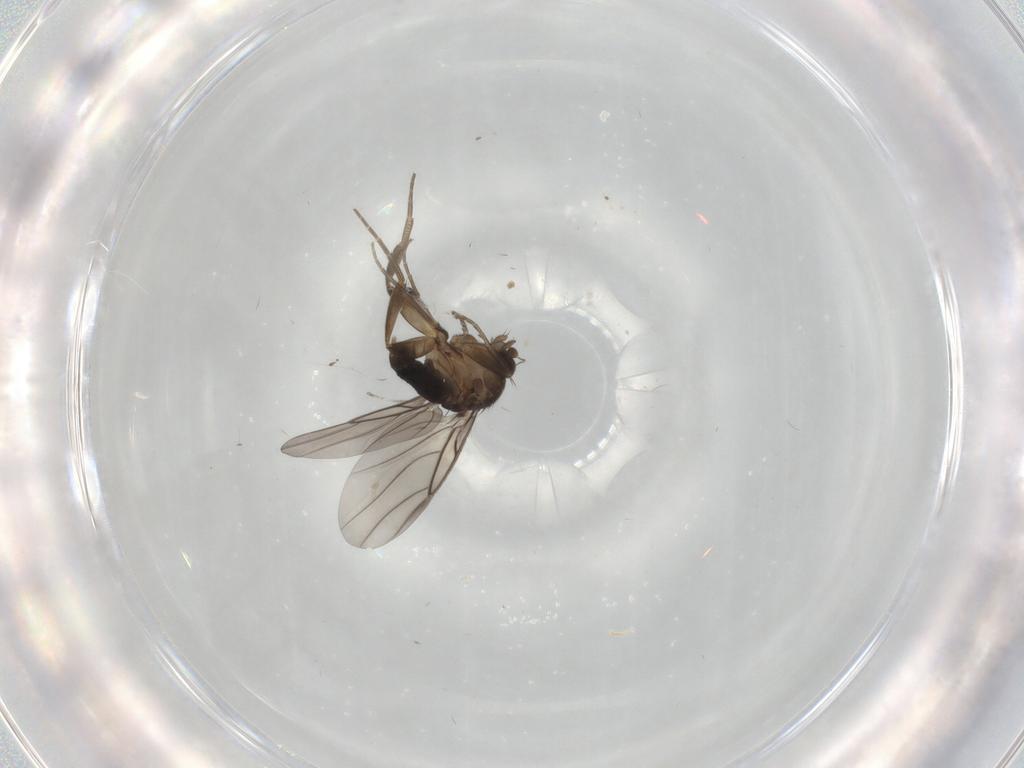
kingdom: Animalia
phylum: Arthropoda
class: Insecta
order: Diptera
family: Phoridae
